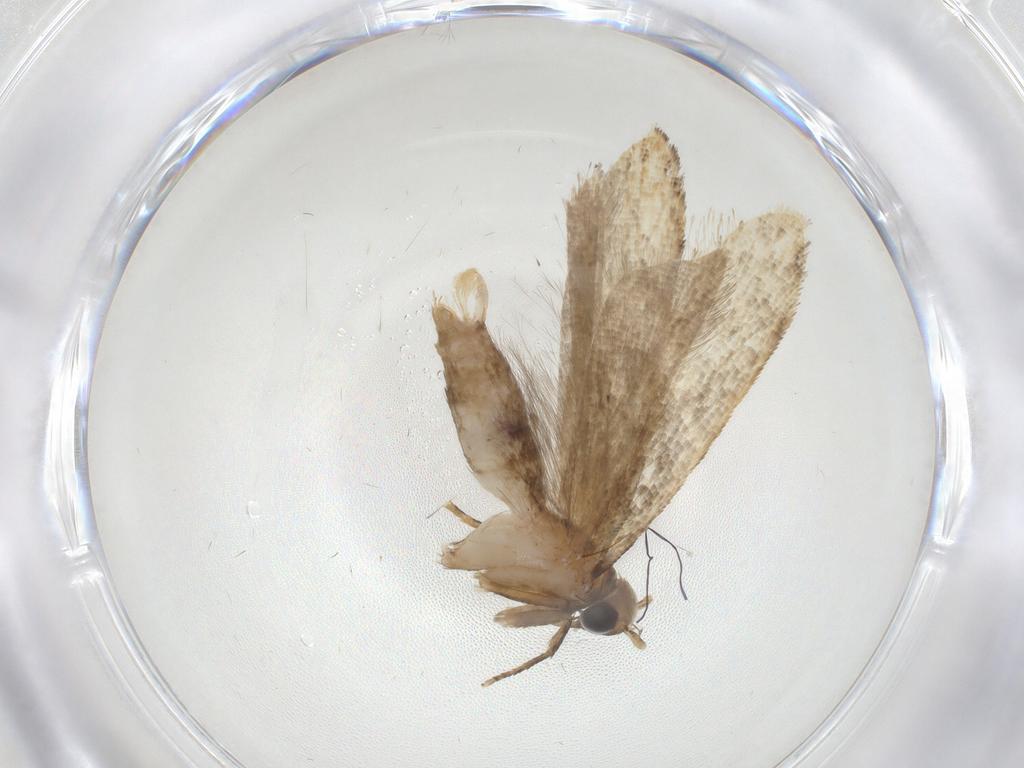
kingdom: Animalia
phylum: Arthropoda
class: Insecta
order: Lepidoptera
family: Gelechiidae
